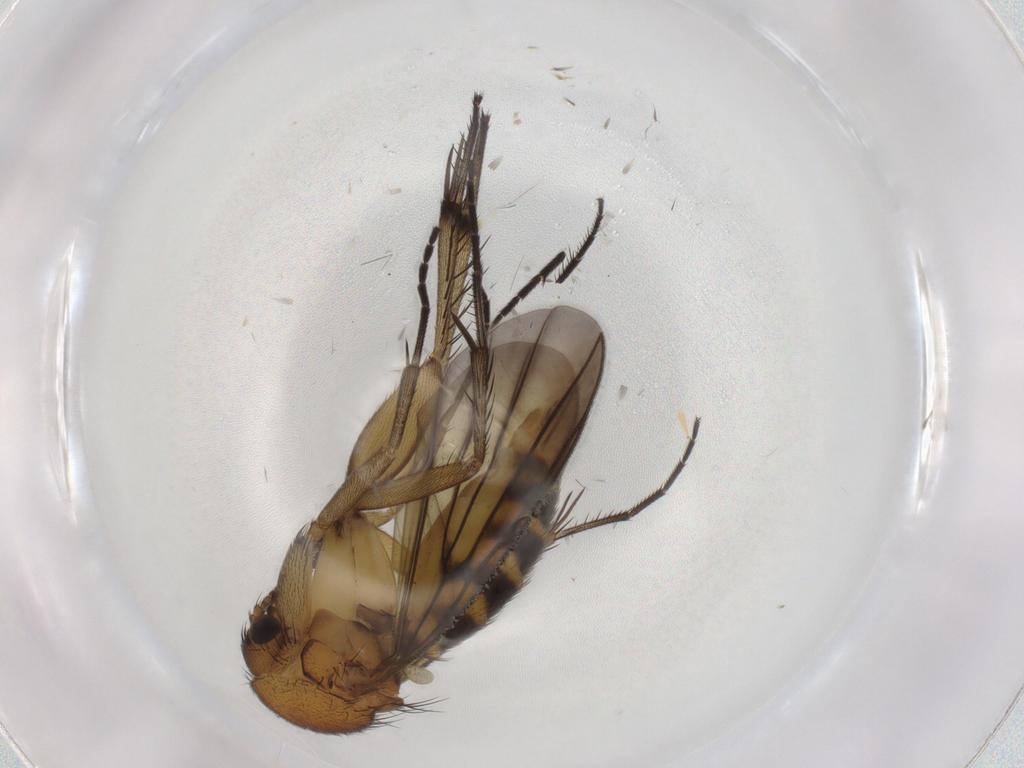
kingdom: Animalia
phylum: Arthropoda
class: Insecta
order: Diptera
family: Mycetophilidae
